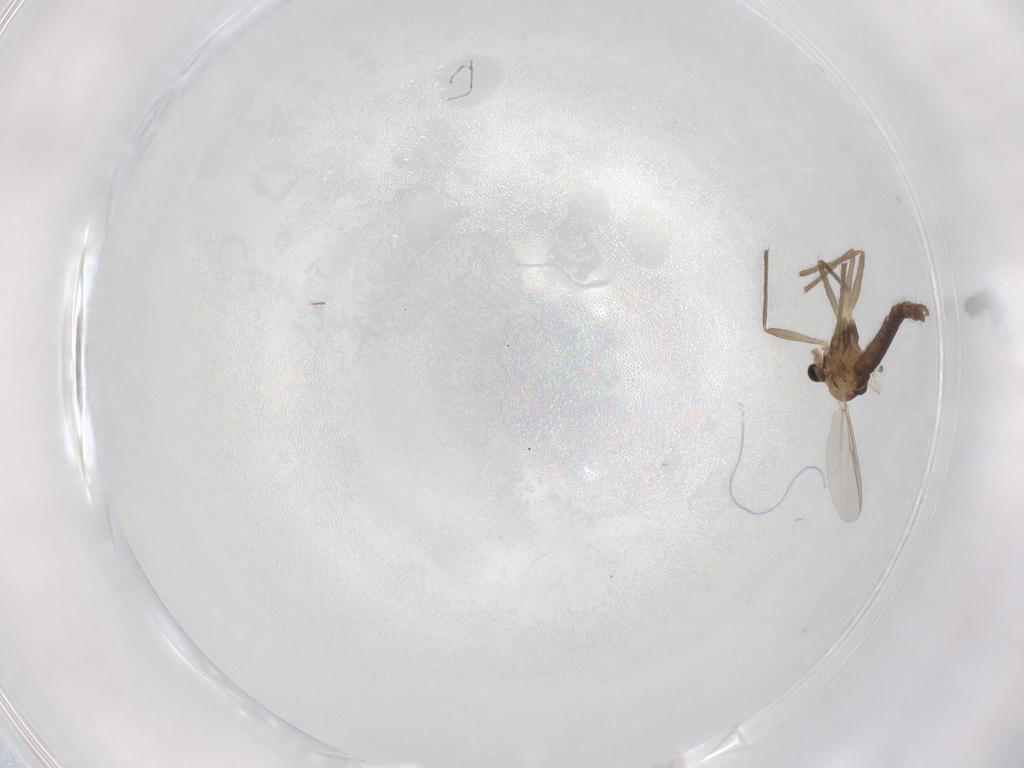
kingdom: Animalia
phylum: Arthropoda
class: Insecta
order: Diptera
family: Chironomidae
